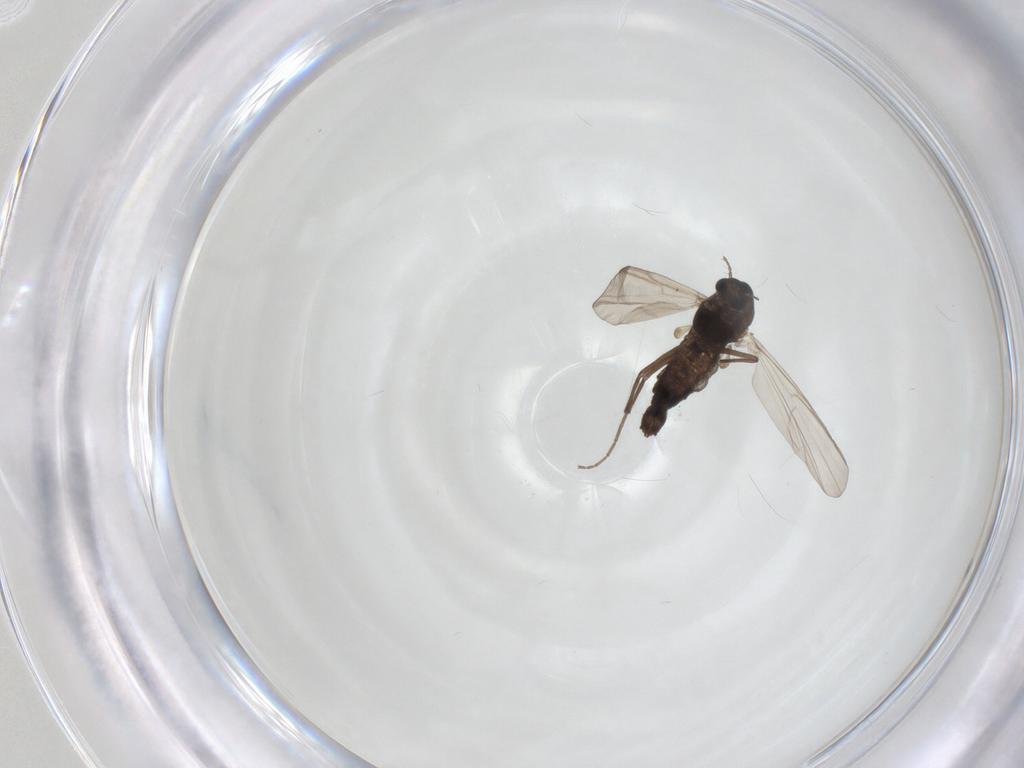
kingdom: Animalia
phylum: Arthropoda
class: Insecta
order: Diptera
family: Chironomidae
